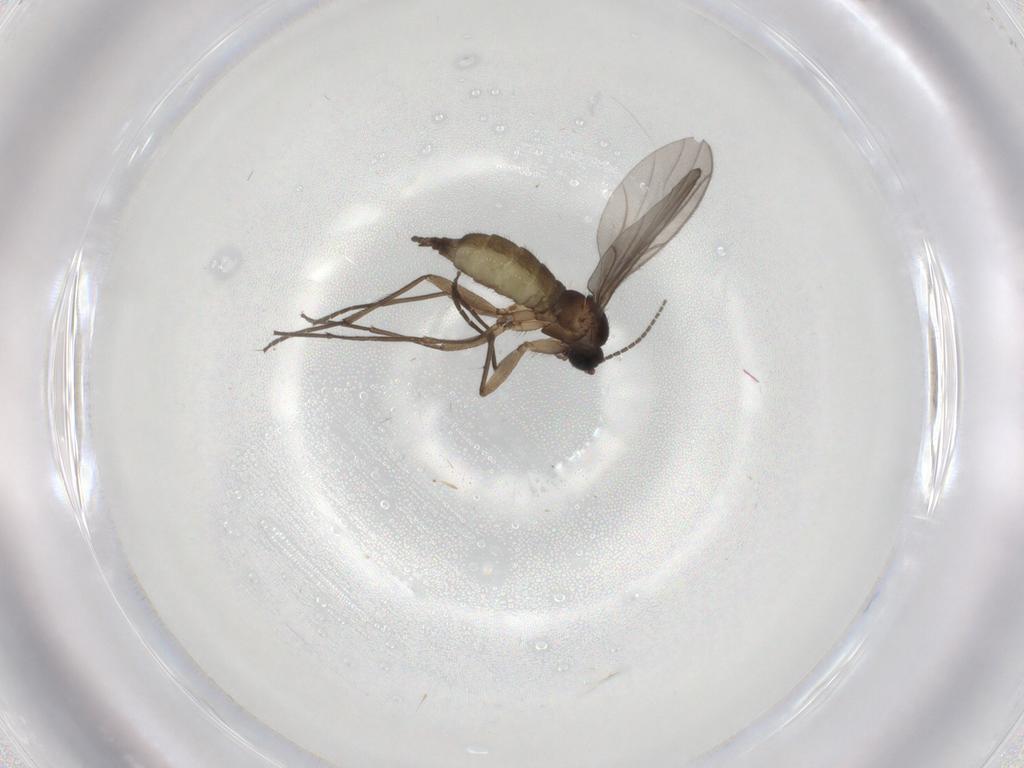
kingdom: Animalia
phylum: Arthropoda
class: Insecta
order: Diptera
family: Sciaridae
